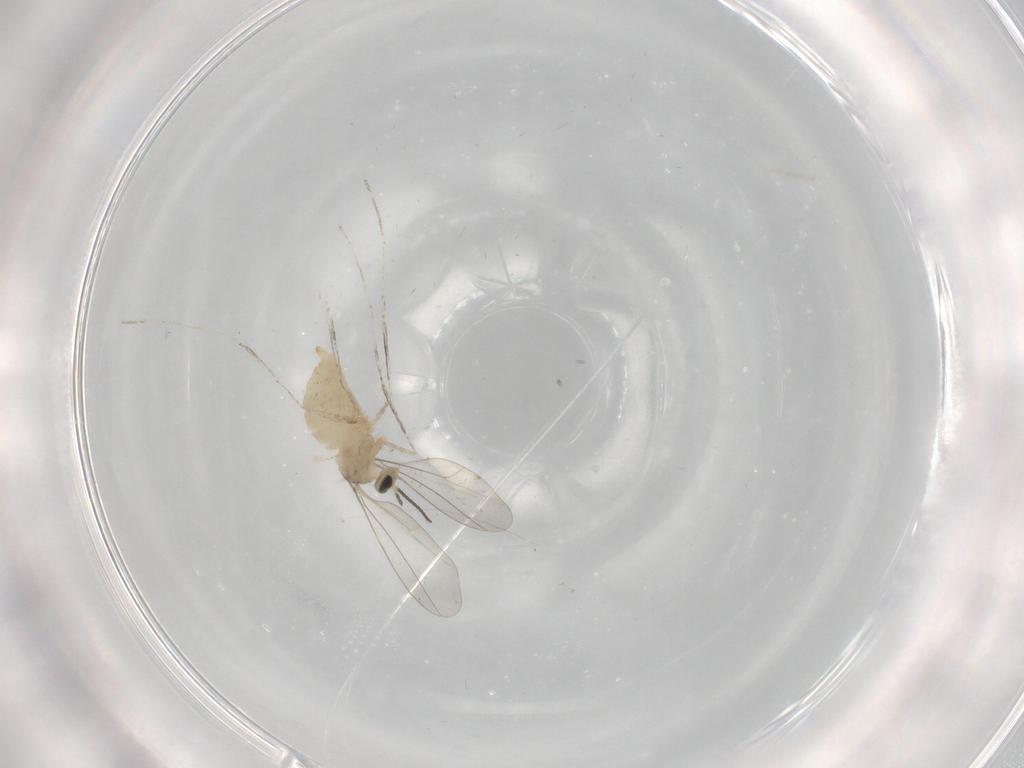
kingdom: Animalia
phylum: Arthropoda
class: Insecta
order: Diptera
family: Cecidomyiidae
